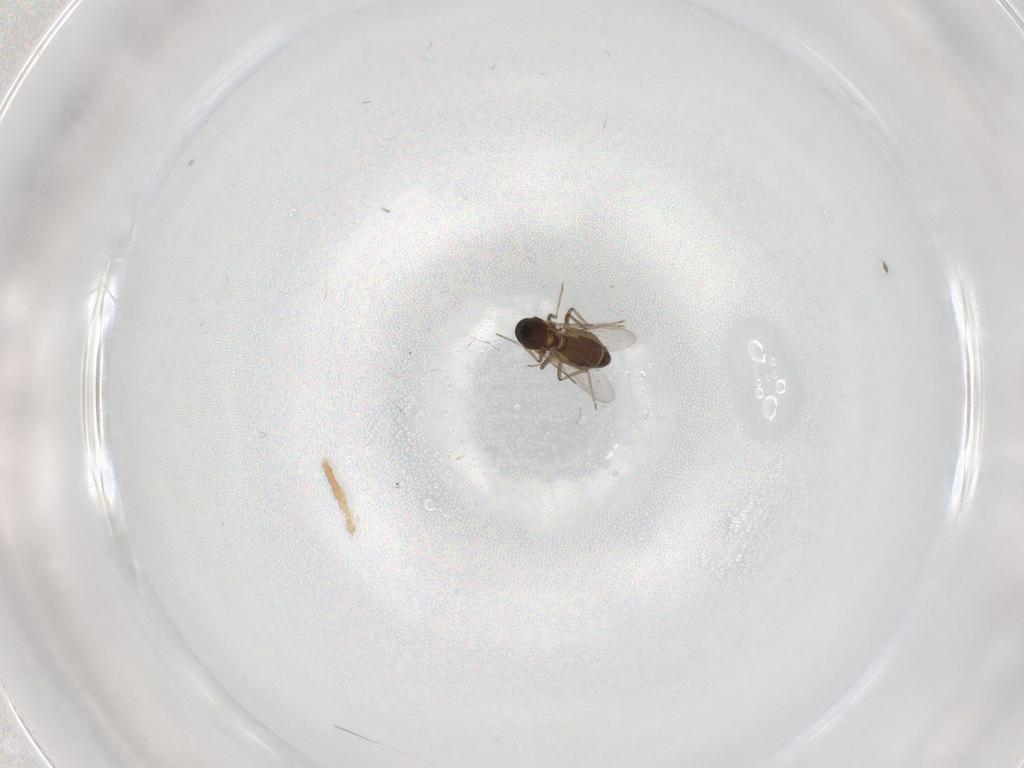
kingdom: Animalia
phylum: Arthropoda
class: Insecta
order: Diptera
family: Ceratopogonidae
